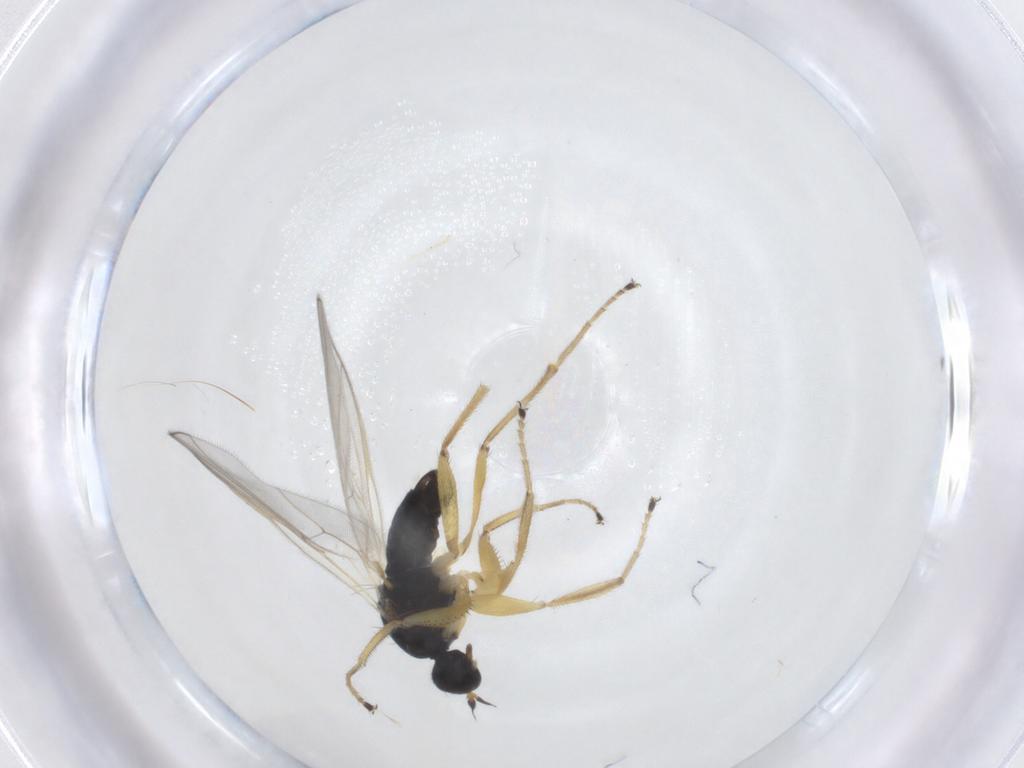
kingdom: Animalia
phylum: Arthropoda
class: Insecta
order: Diptera
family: Hybotidae
